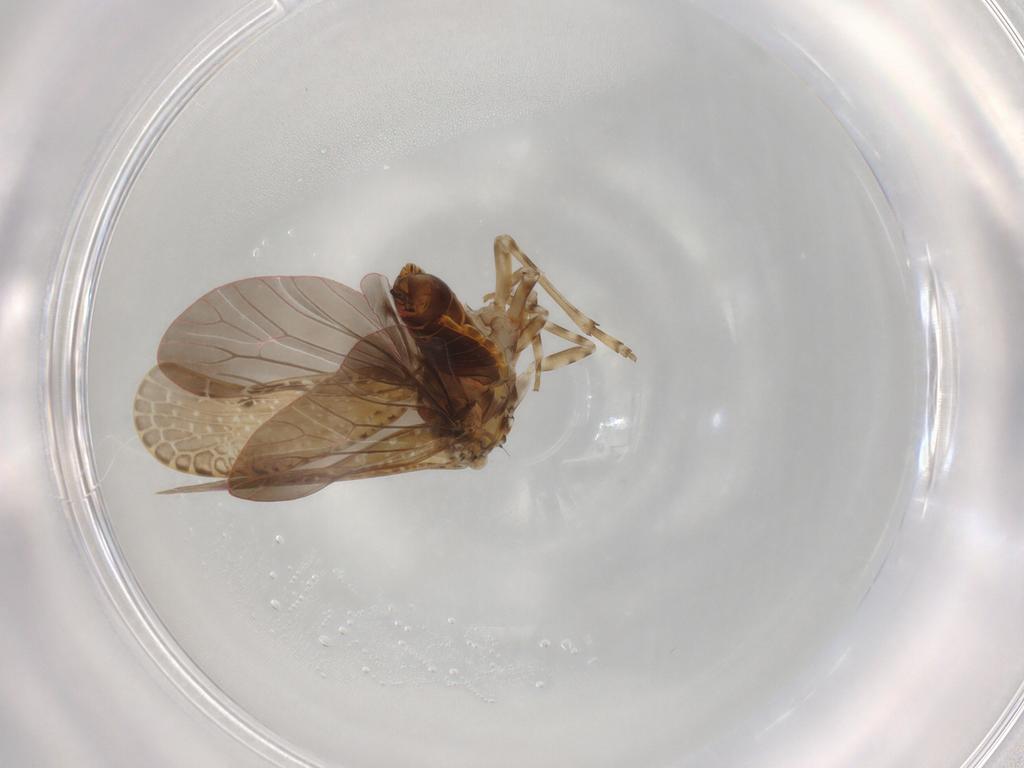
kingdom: Animalia
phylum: Arthropoda
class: Insecta
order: Hemiptera
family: Achilidae
